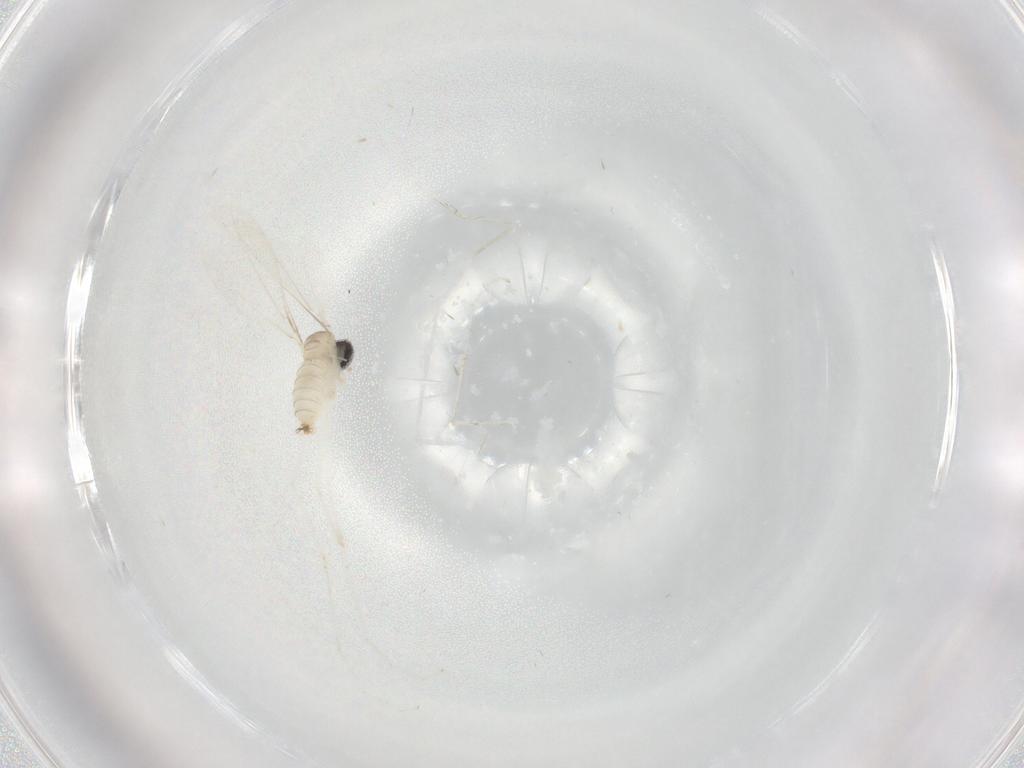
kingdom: Animalia
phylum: Arthropoda
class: Insecta
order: Diptera
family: Cecidomyiidae
